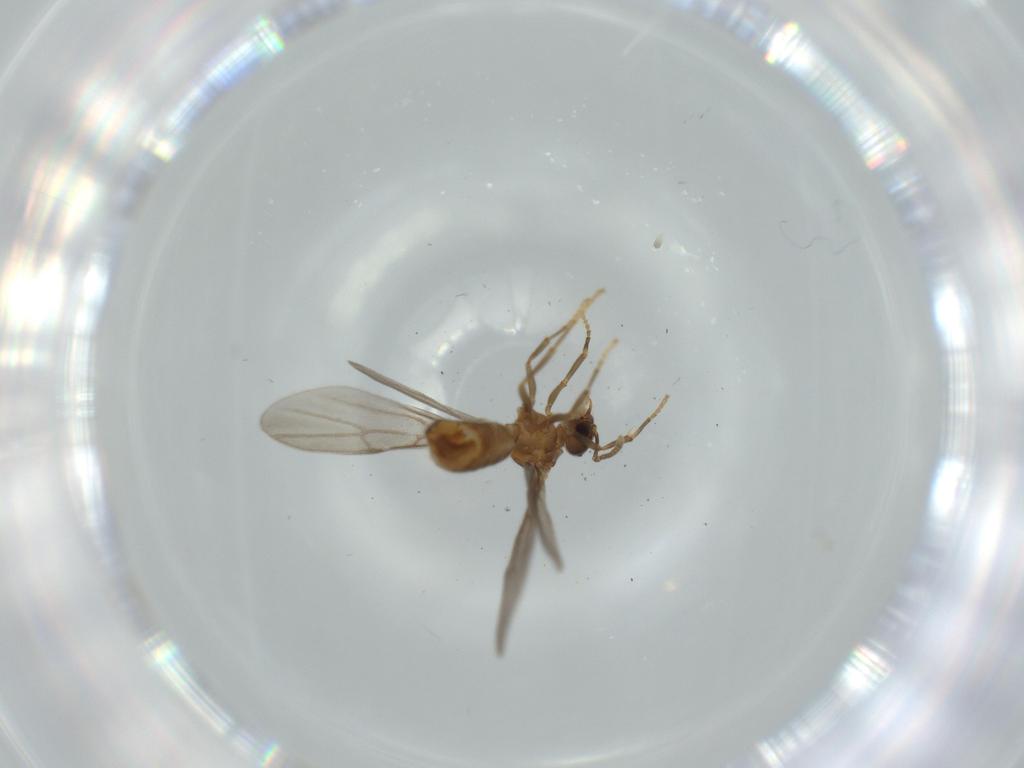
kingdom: Animalia
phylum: Arthropoda
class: Insecta
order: Hymenoptera
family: Formicidae
